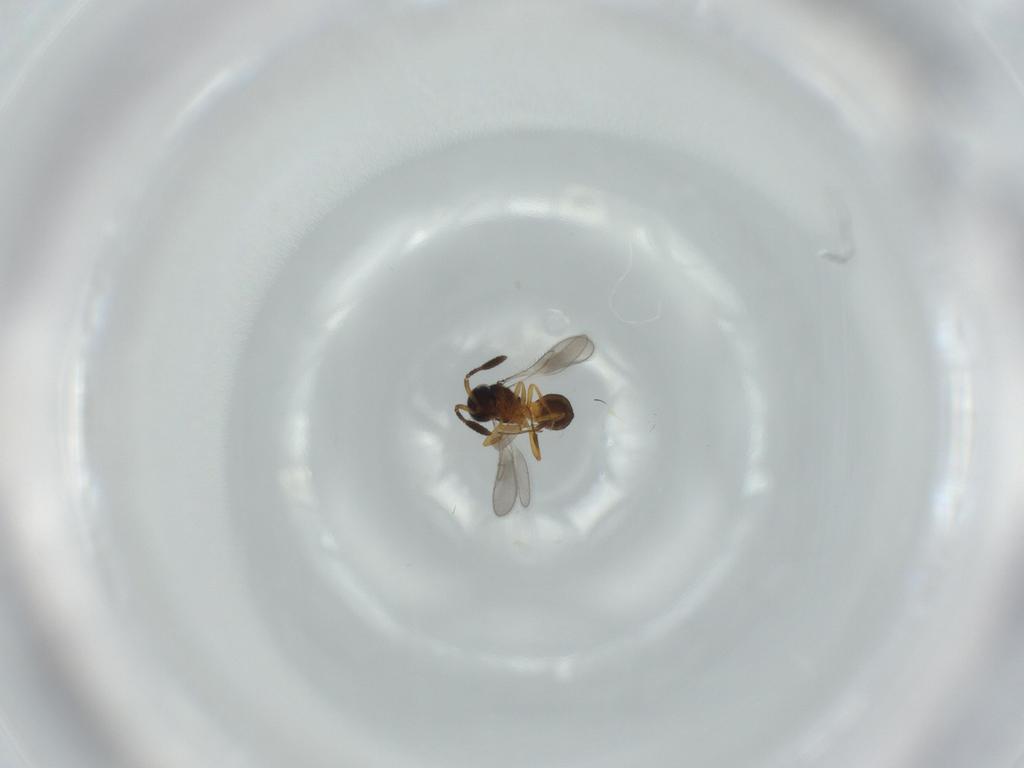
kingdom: Animalia
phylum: Arthropoda
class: Insecta
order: Hymenoptera
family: Scelionidae
